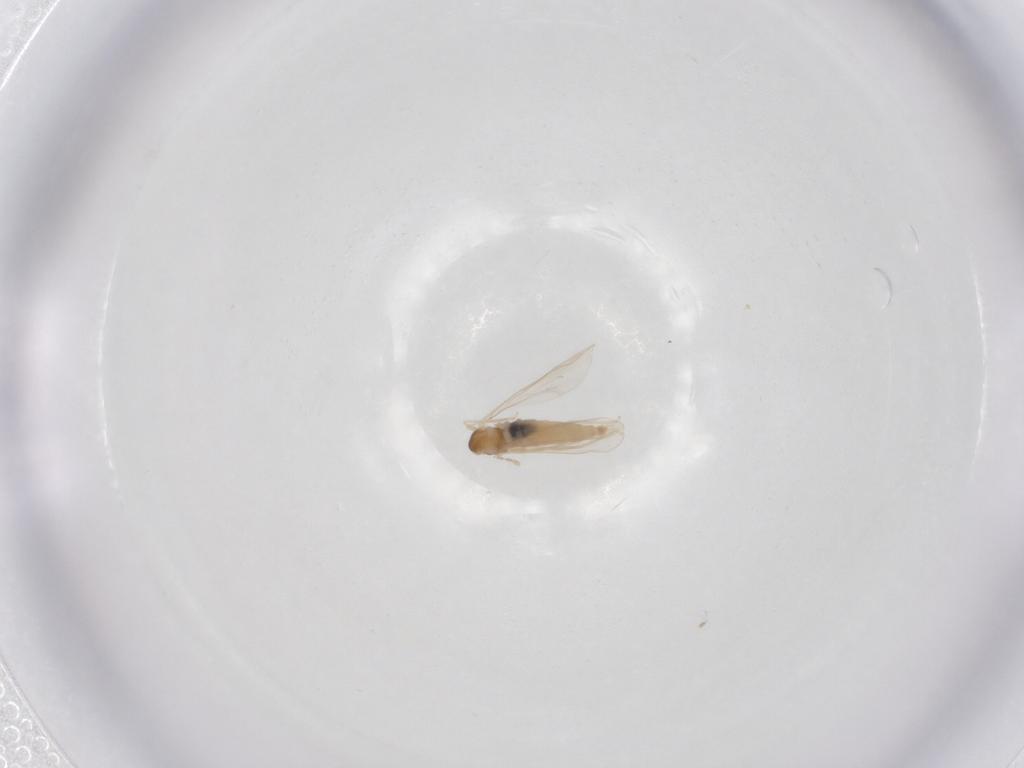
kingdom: Animalia
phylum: Arthropoda
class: Insecta
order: Diptera
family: Cecidomyiidae
